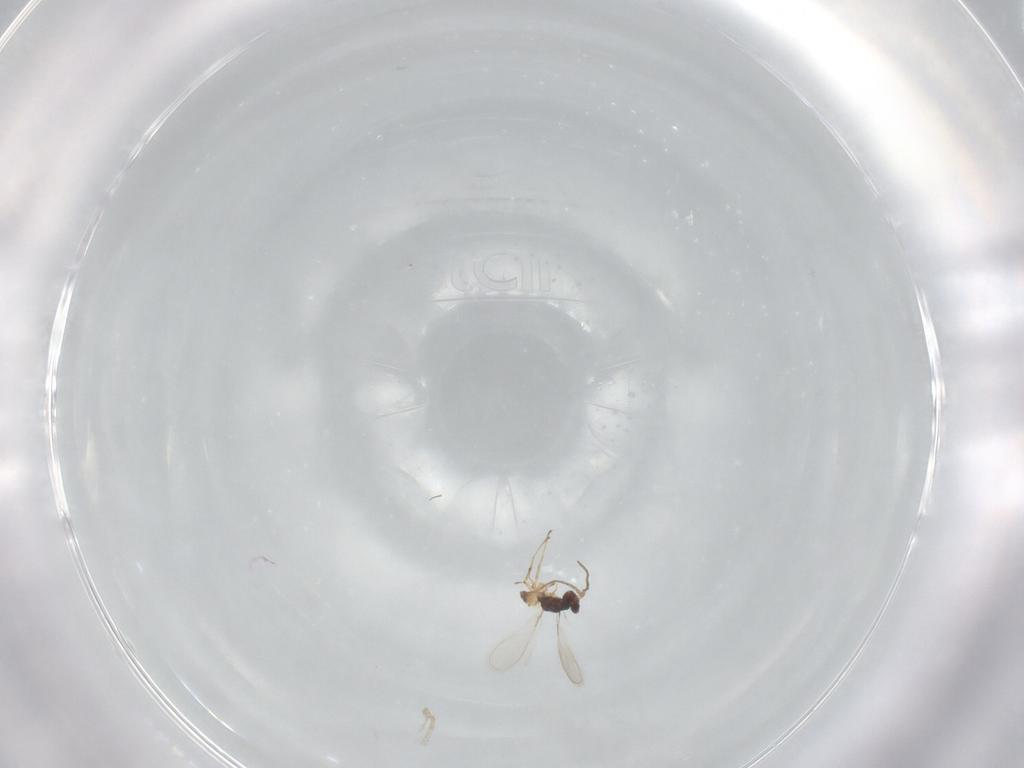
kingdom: Animalia
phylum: Arthropoda
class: Insecta
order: Hymenoptera
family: Mymaridae
